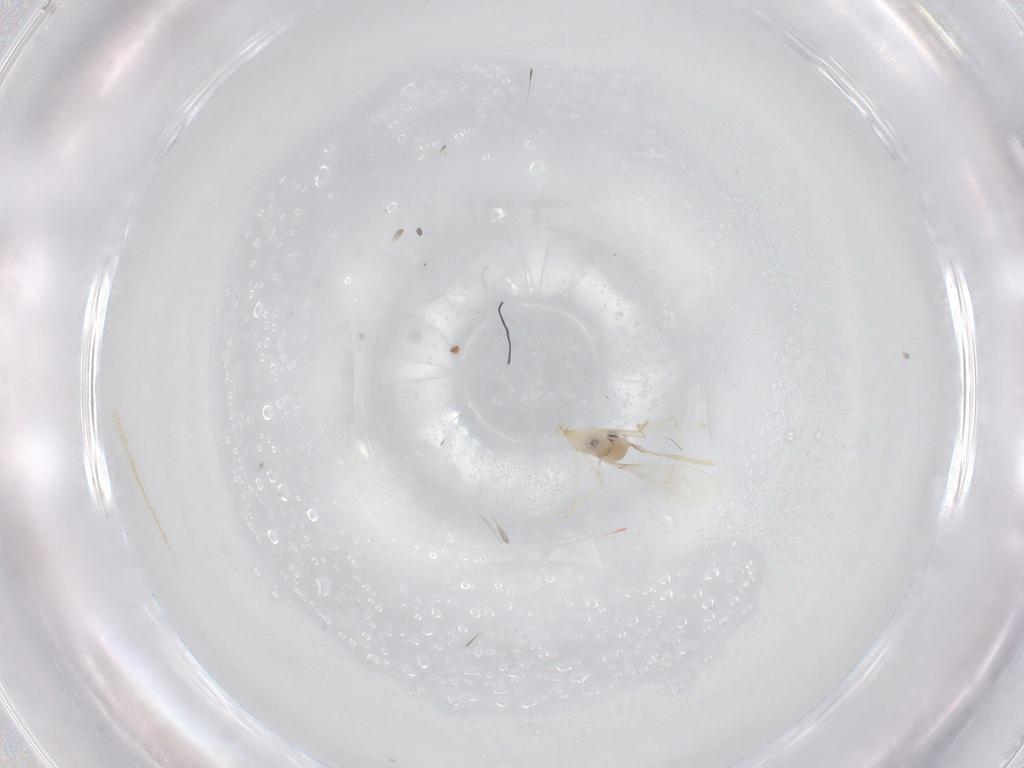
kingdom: Animalia
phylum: Arthropoda
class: Insecta
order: Diptera
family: Cecidomyiidae
